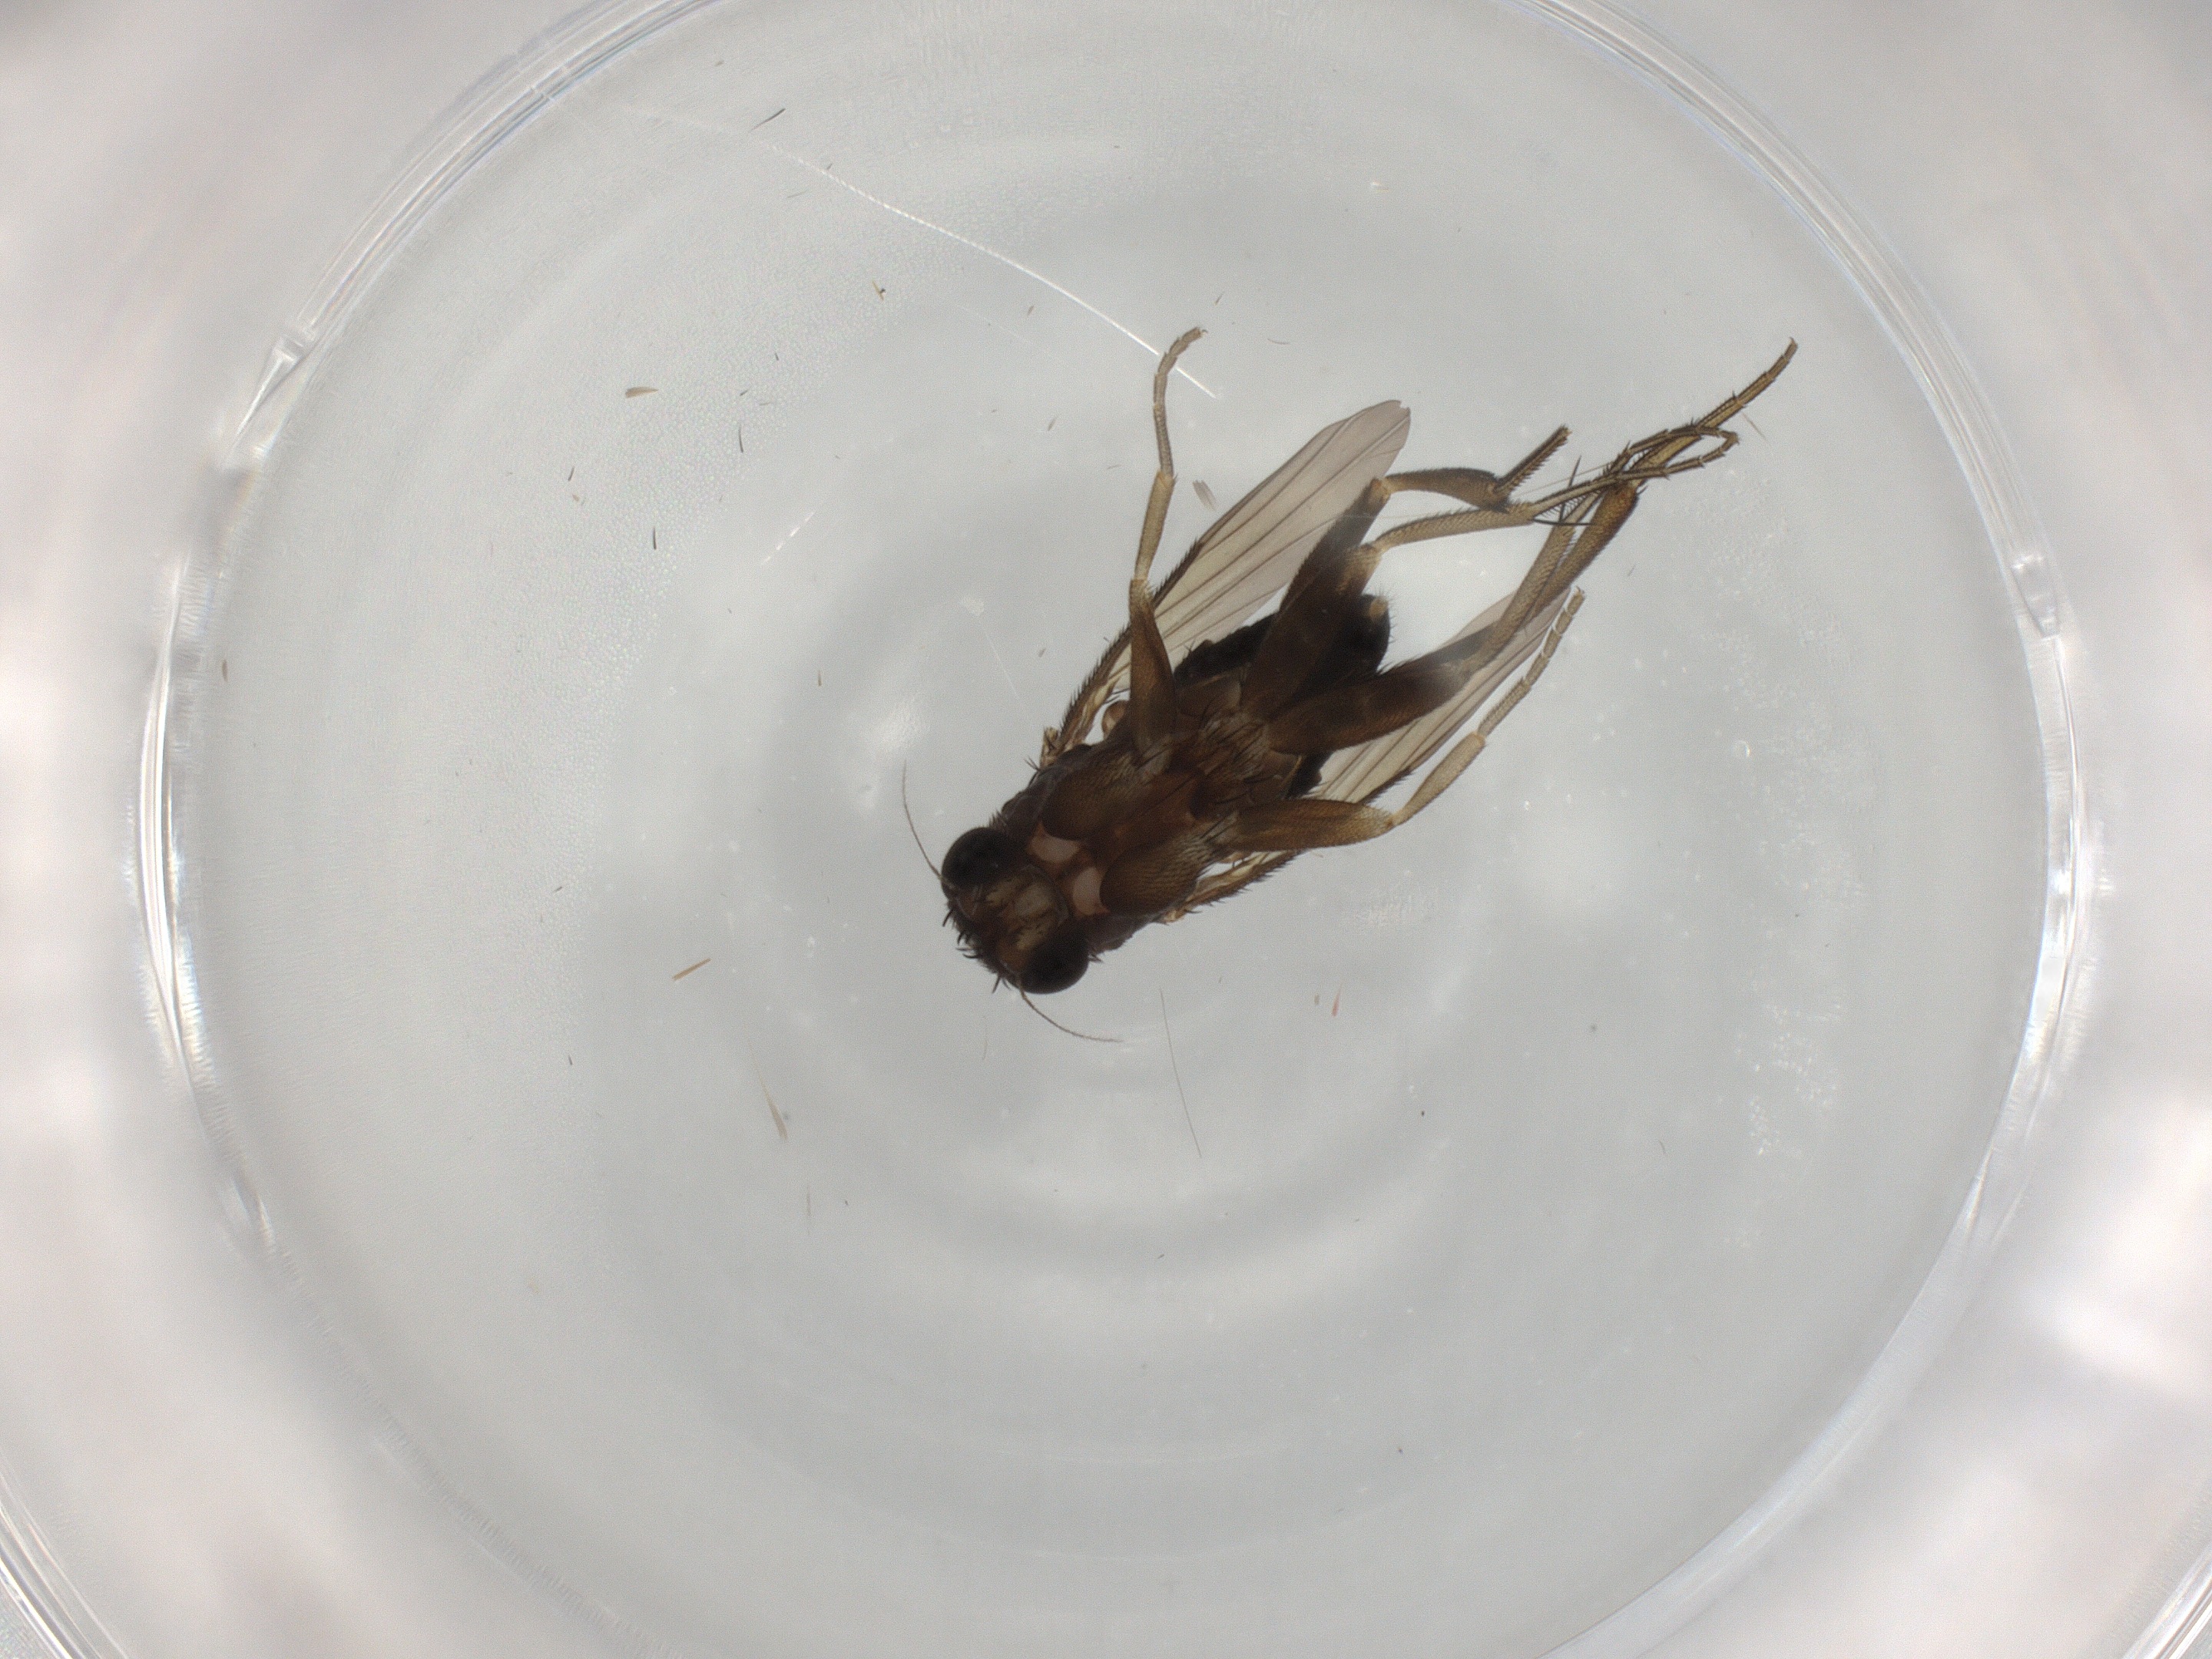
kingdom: Animalia
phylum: Arthropoda
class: Insecta
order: Diptera
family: Phoridae
